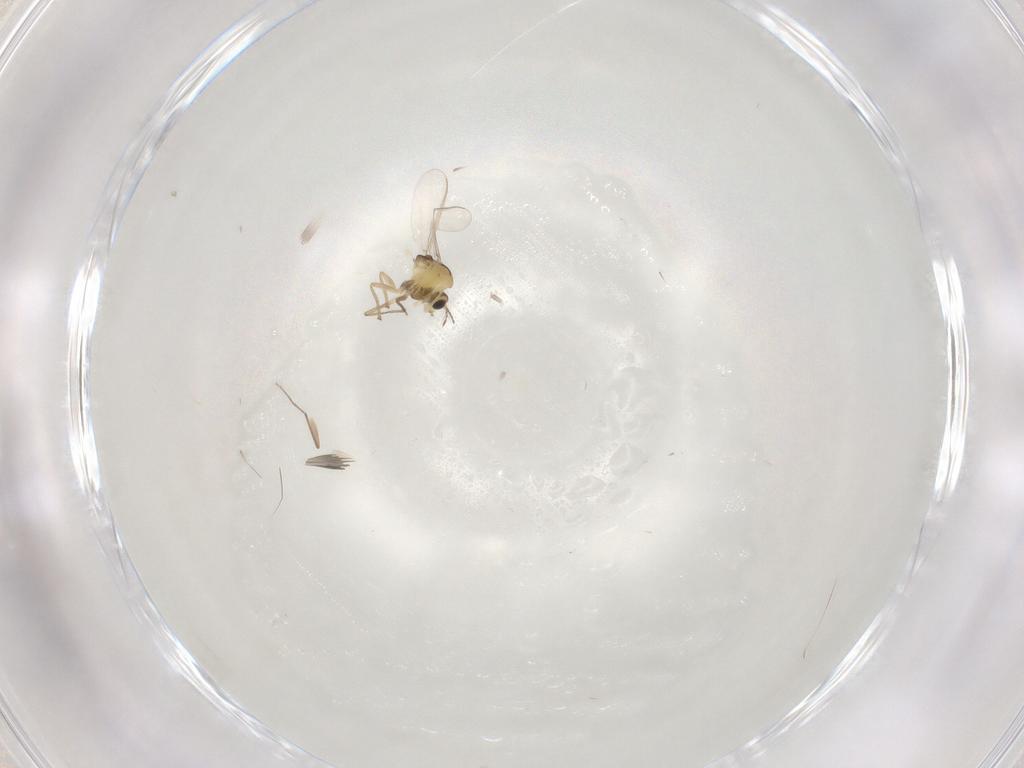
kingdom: Animalia
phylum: Arthropoda
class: Insecta
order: Diptera
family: Chironomidae
